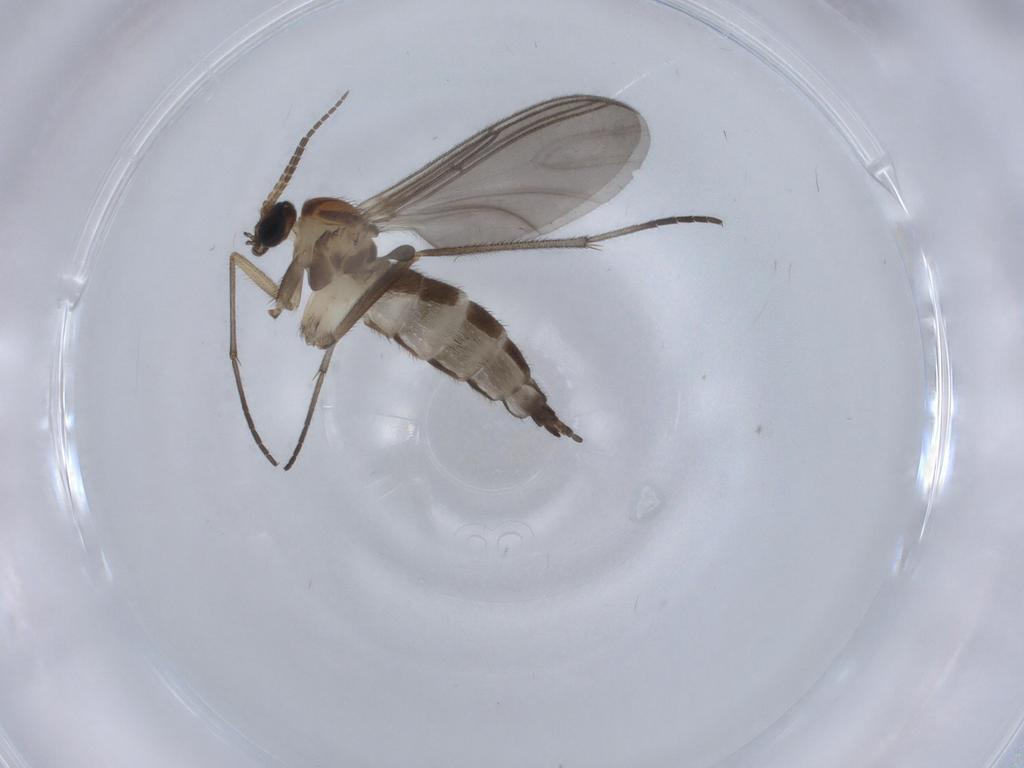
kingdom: Animalia
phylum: Arthropoda
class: Insecta
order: Diptera
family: Sciaridae
